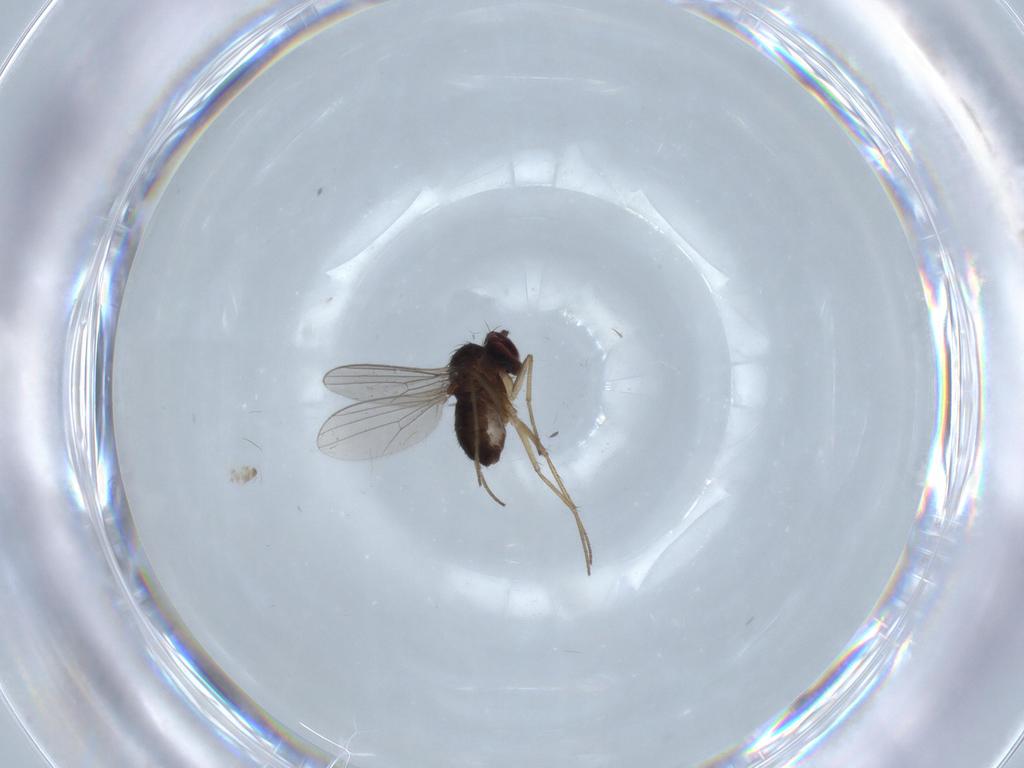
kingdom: Animalia
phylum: Arthropoda
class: Insecta
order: Diptera
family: Dolichopodidae
